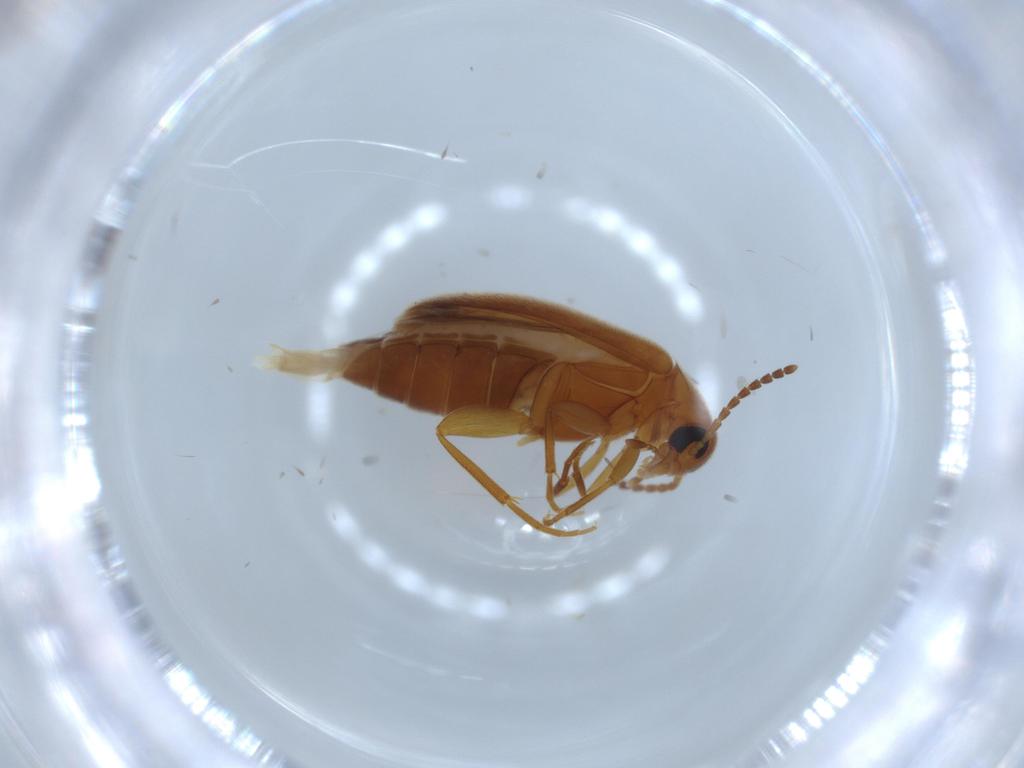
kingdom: Animalia
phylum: Arthropoda
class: Insecta
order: Coleoptera
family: Scraptiidae
